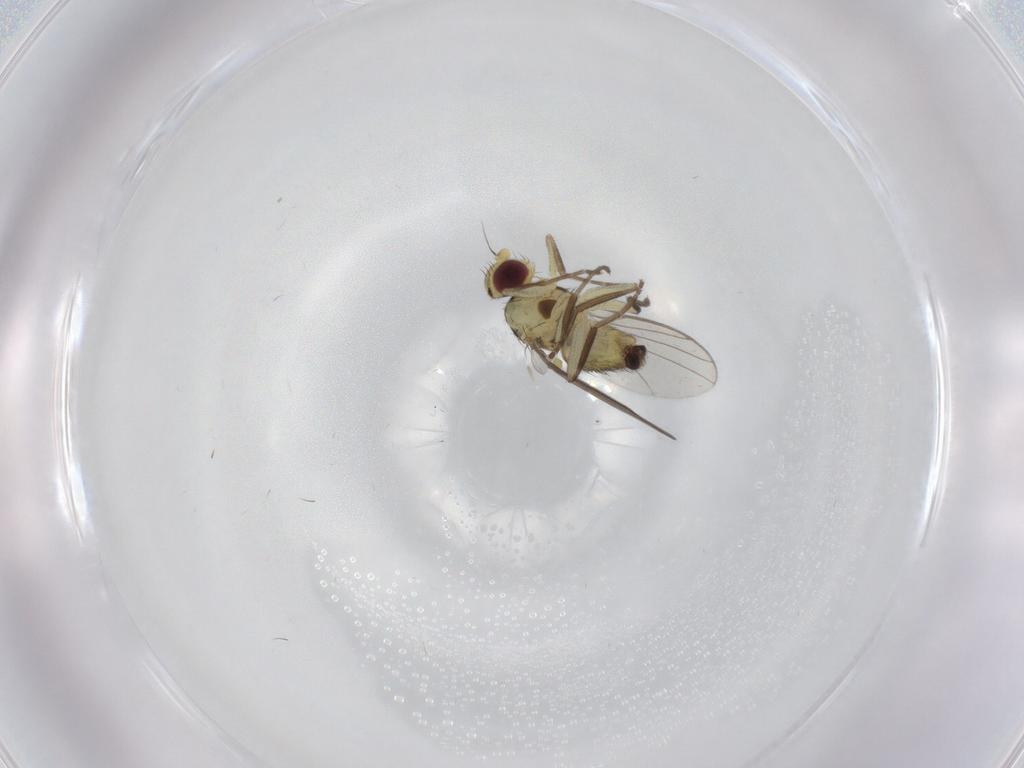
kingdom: Animalia
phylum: Arthropoda
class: Insecta
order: Diptera
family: Agromyzidae
